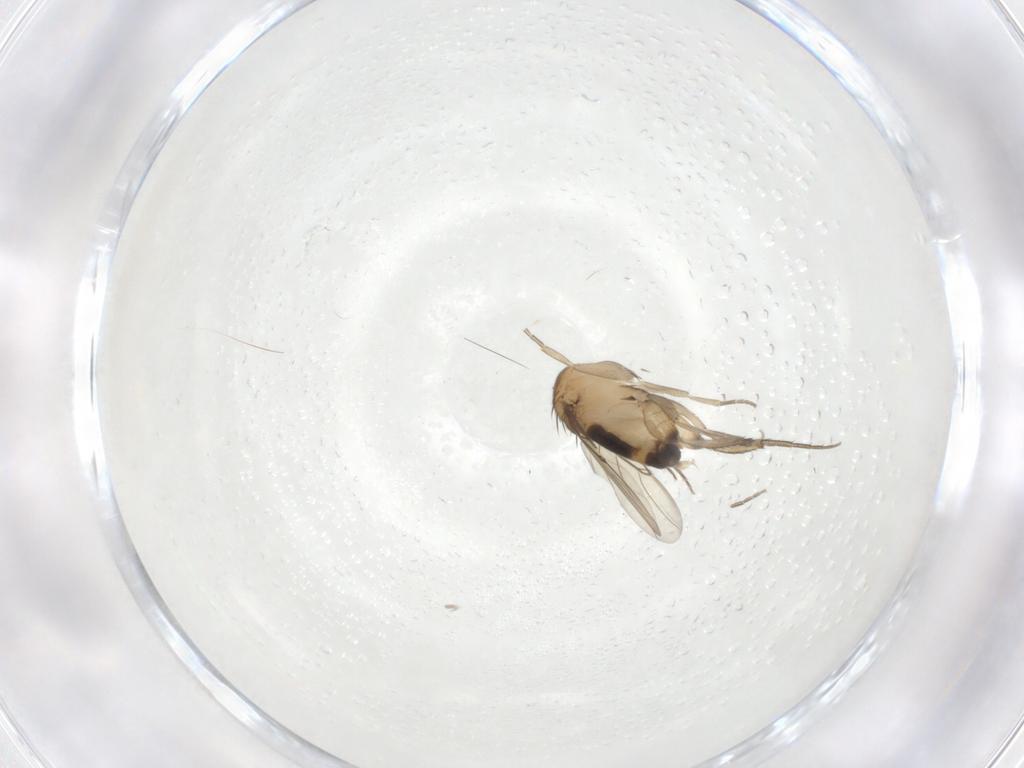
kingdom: Animalia
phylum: Arthropoda
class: Insecta
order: Diptera
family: Phoridae
